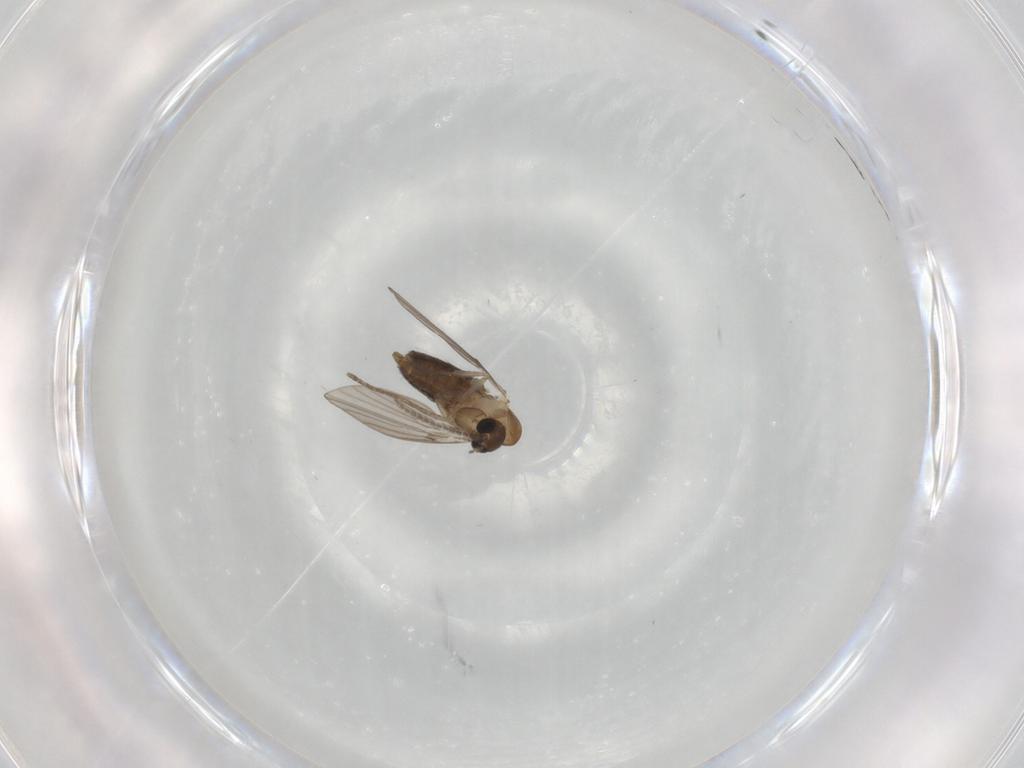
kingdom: Animalia
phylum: Arthropoda
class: Insecta
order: Diptera
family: Psychodidae
